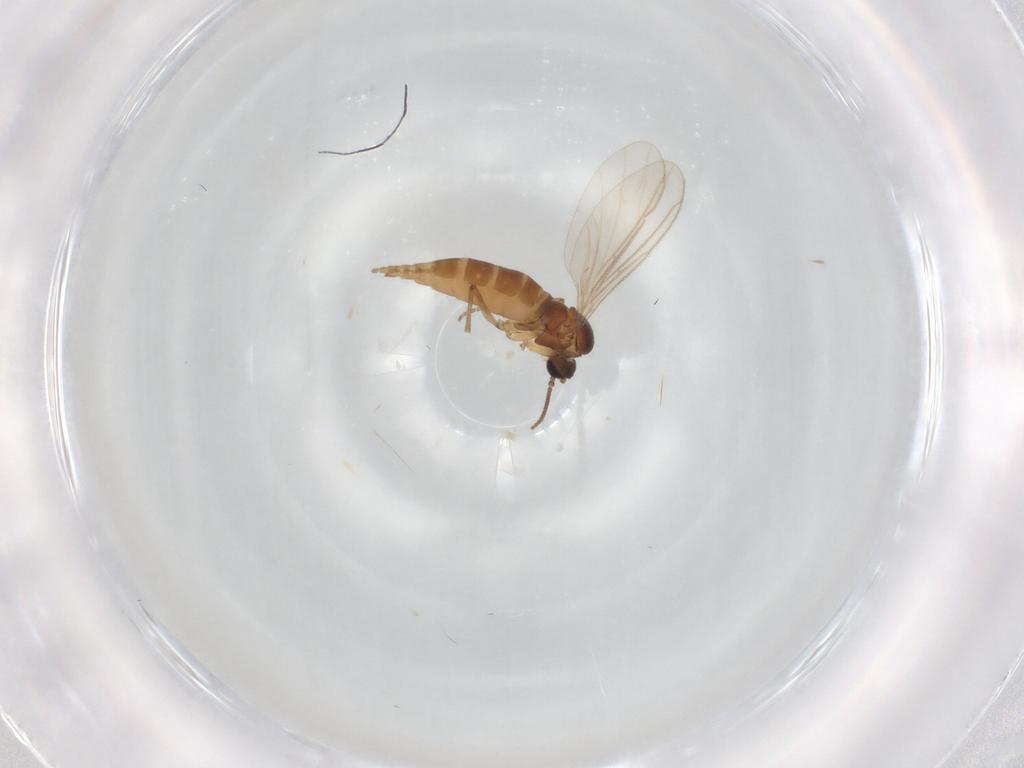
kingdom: Animalia
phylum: Arthropoda
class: Insecta
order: Diptera
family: Sciaridae
